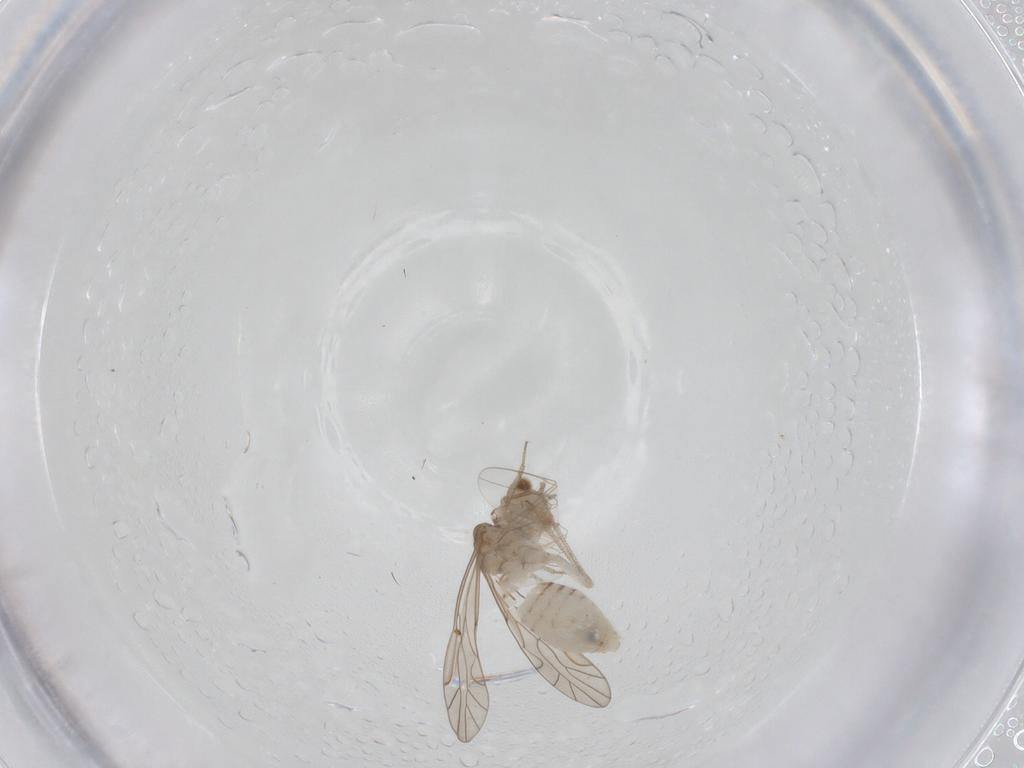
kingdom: Animalia
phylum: Arthropoda
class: Insecta
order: Psocodea
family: Lachesillidae
